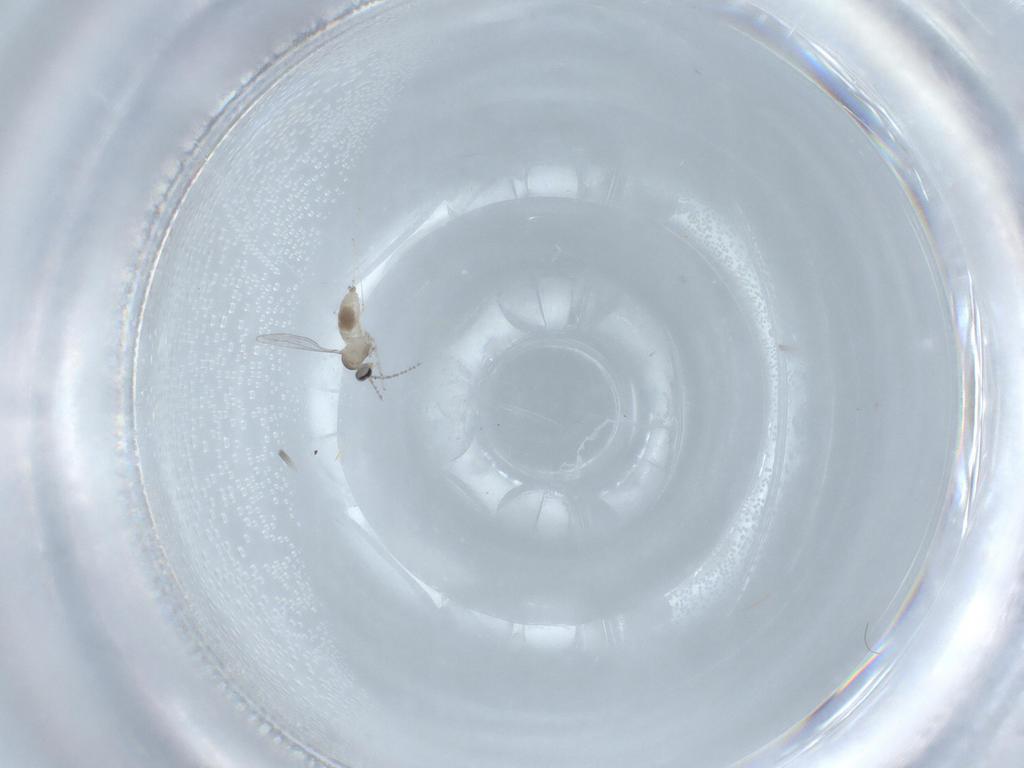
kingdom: Animalia
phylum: Arthropoda
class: Insecta
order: Diptera
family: Cecidomyiidae
